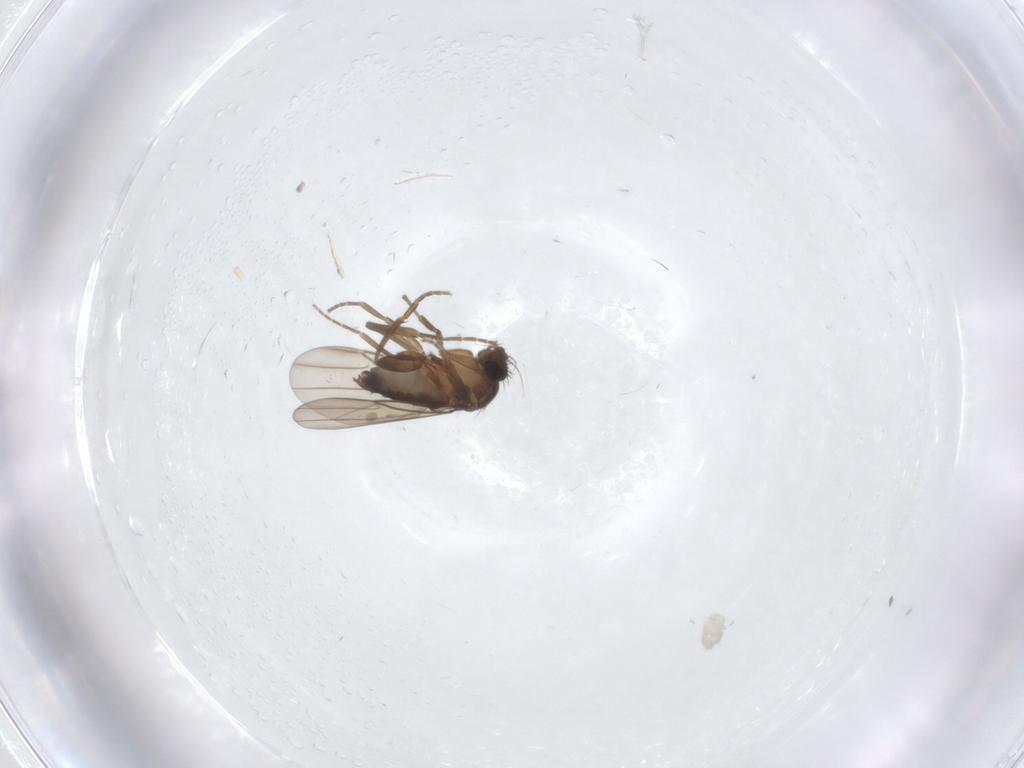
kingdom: Animalia
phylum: Arthropoda
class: Insecta
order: Diptera
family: Phoridae
